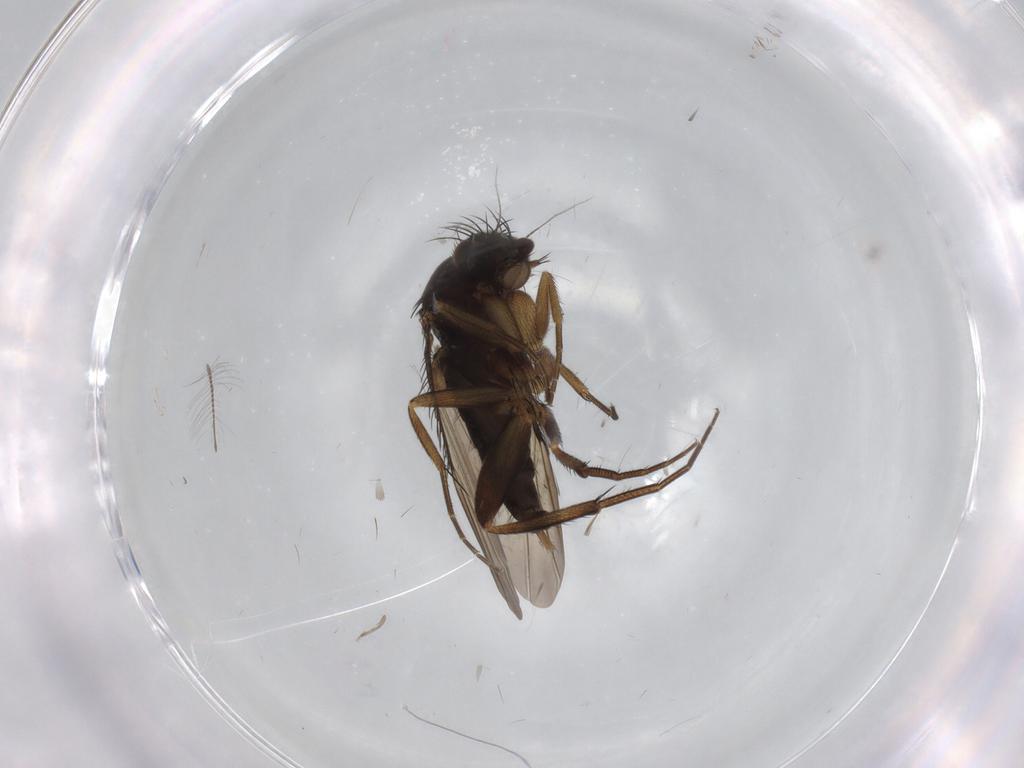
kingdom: Animalia
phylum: Arthropoda
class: Insecta
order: Diptera
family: Phoridae
